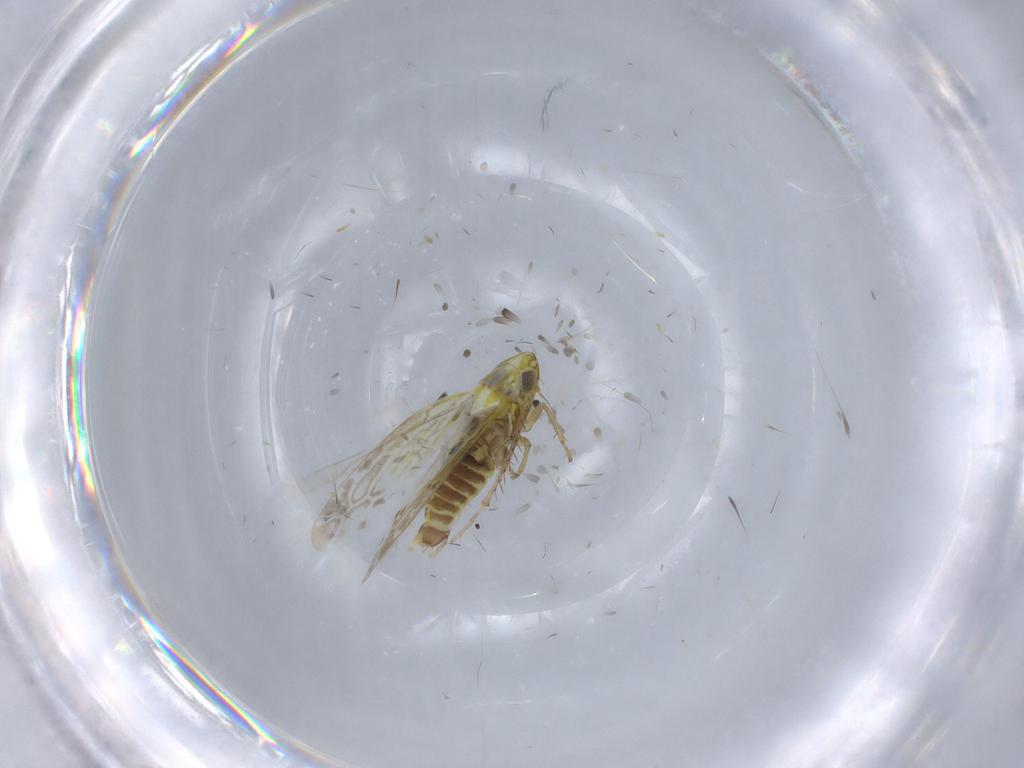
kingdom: Animalia
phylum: Arthropoda
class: Insecta
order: Hemiptera
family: Cicadellidae
